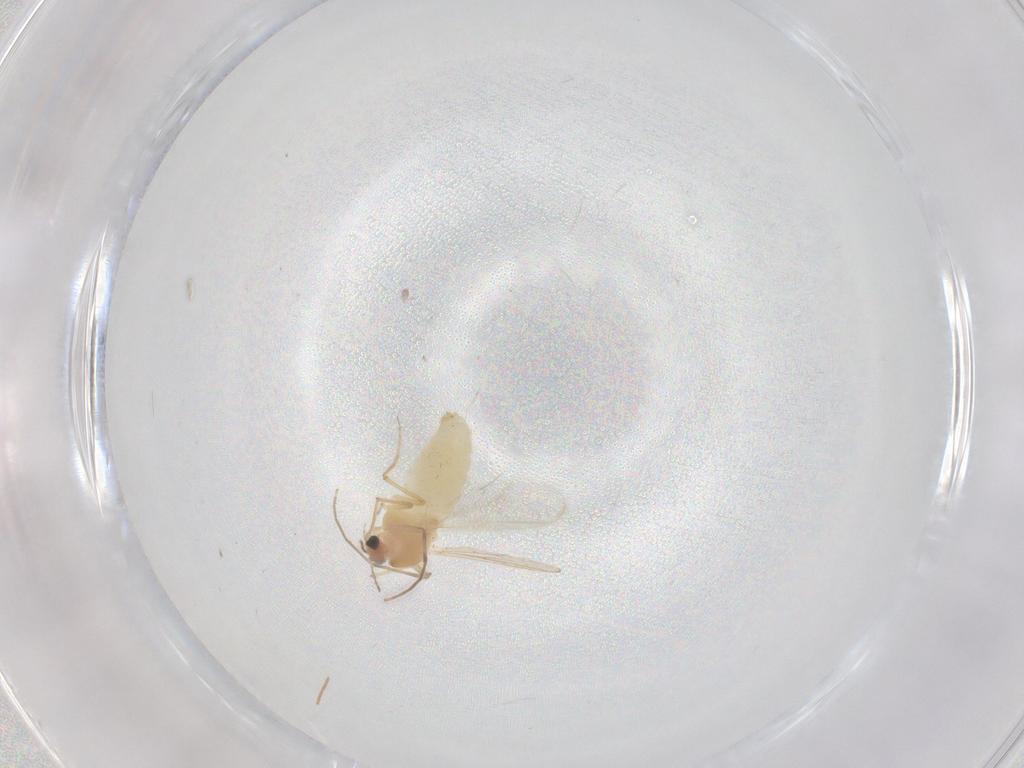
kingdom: Animalia
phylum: Arthropoda
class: Insecta
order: Diptera
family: Chironomidae
